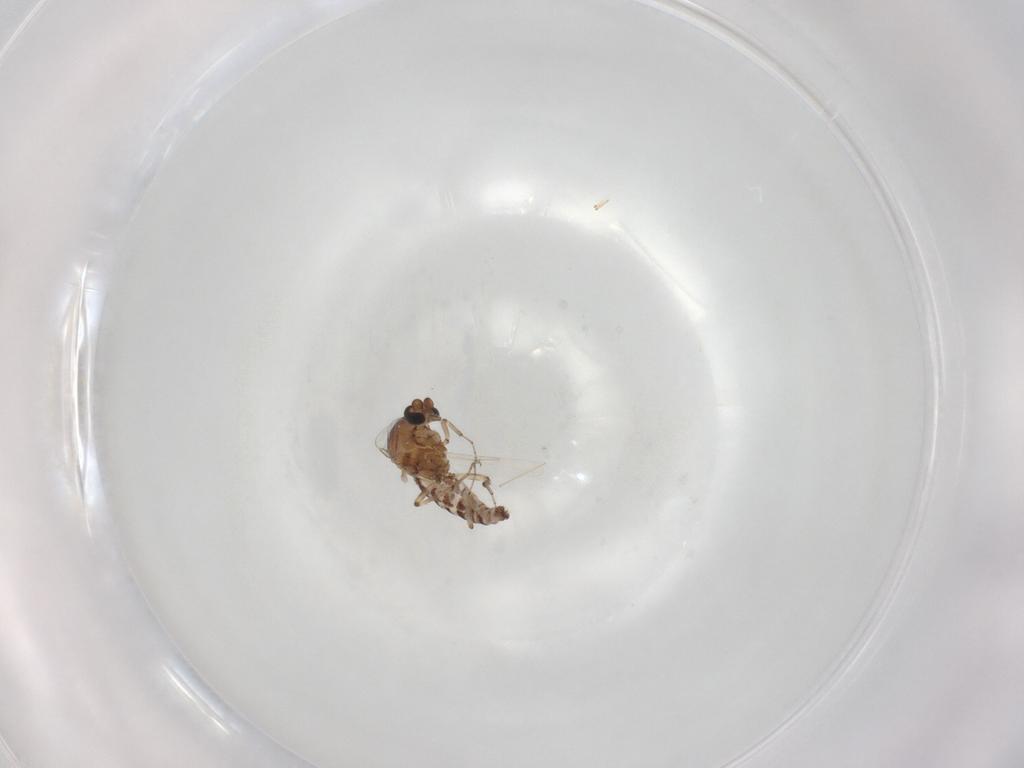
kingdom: Animalia
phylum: Arthropoda
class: Insecta
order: Diptera
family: Ceratopogonidae
